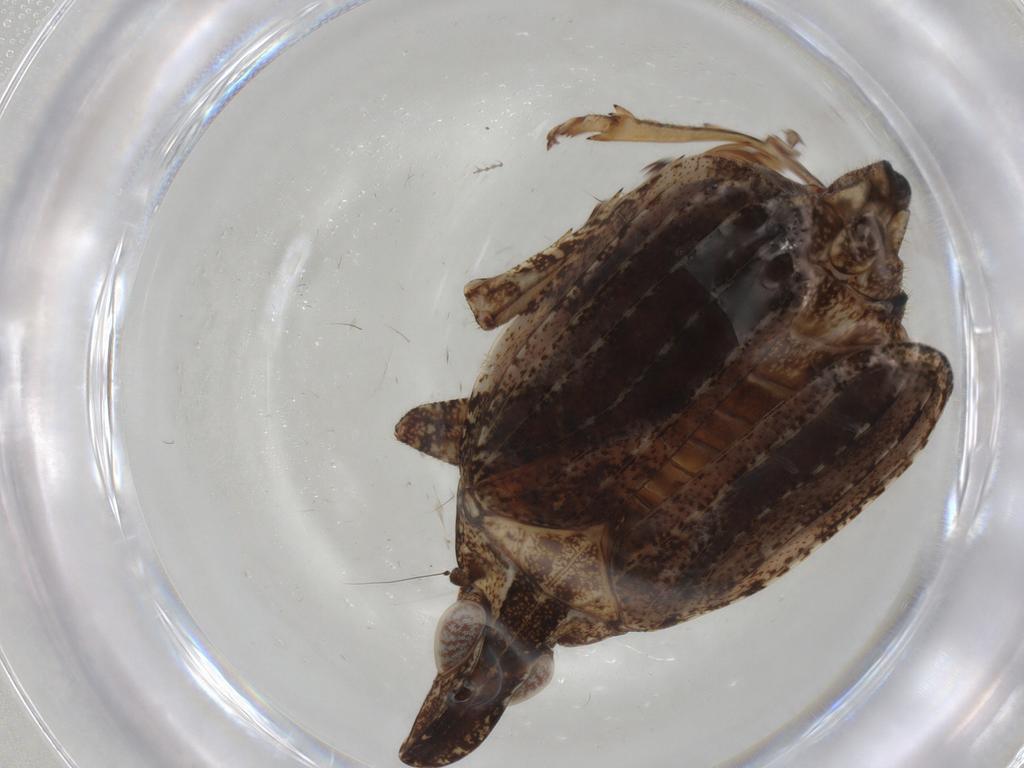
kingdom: Animalia
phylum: Arthropoda
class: Insecta
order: Hemiptera
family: Tropiduchidae
